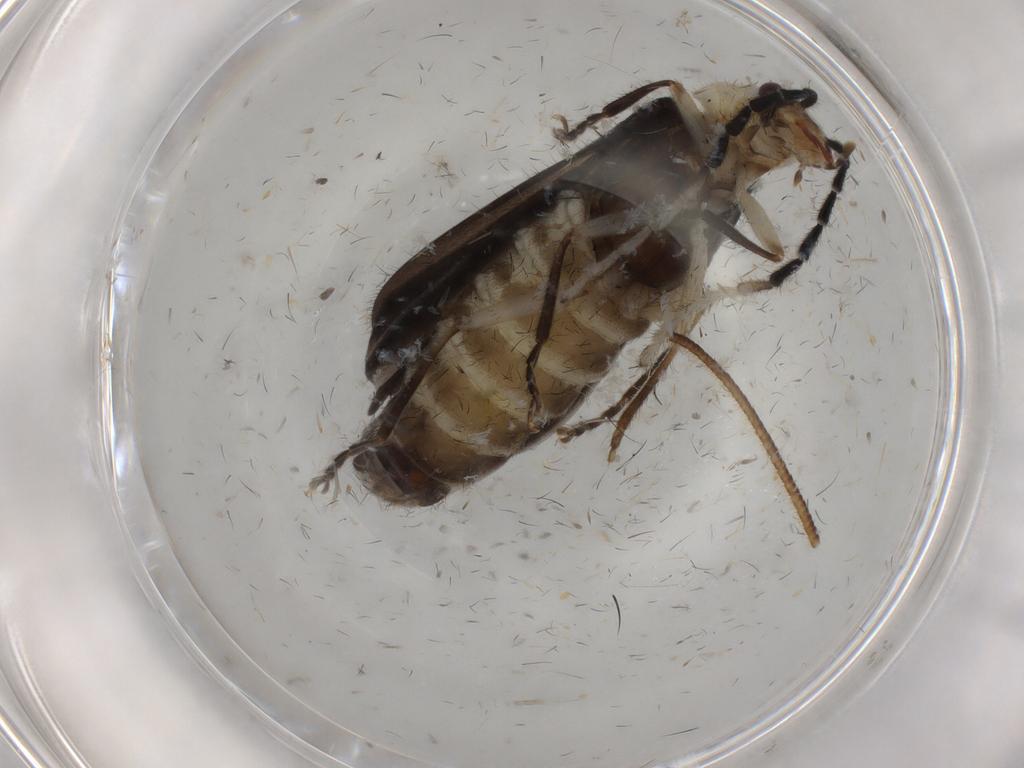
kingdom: Animalia
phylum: Arthropoda
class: Insecta
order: Coleoptera
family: Cantharidae
